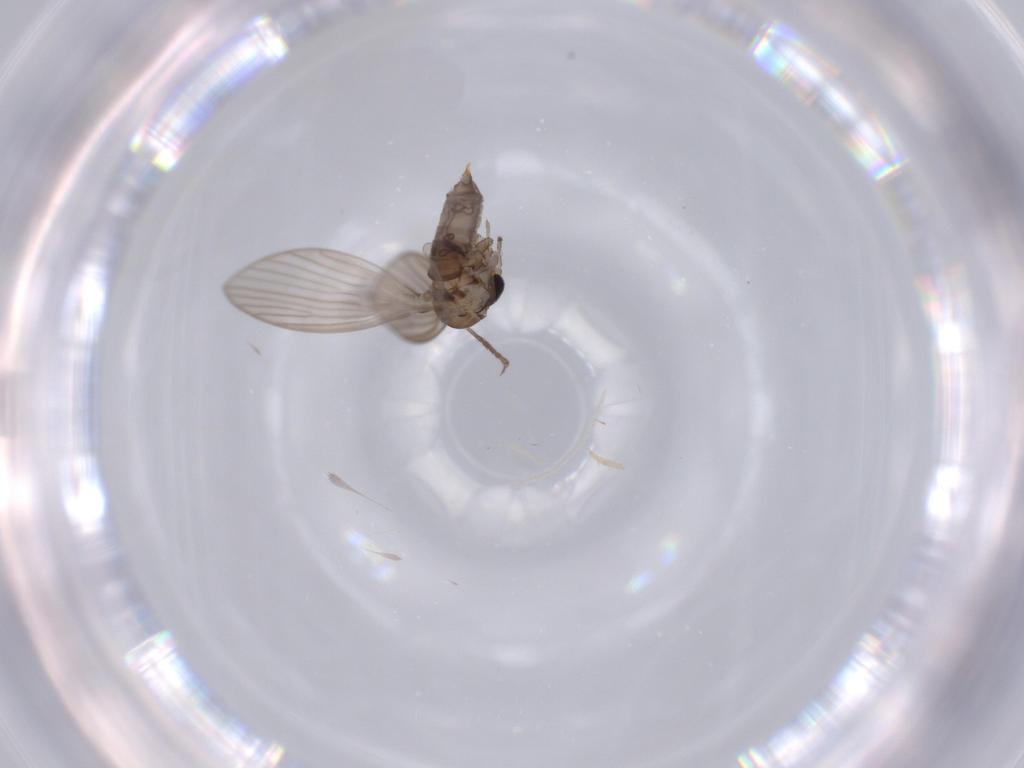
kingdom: Animalia
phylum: Arthropoda
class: Insecta
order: Diptera
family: Psychodidae
